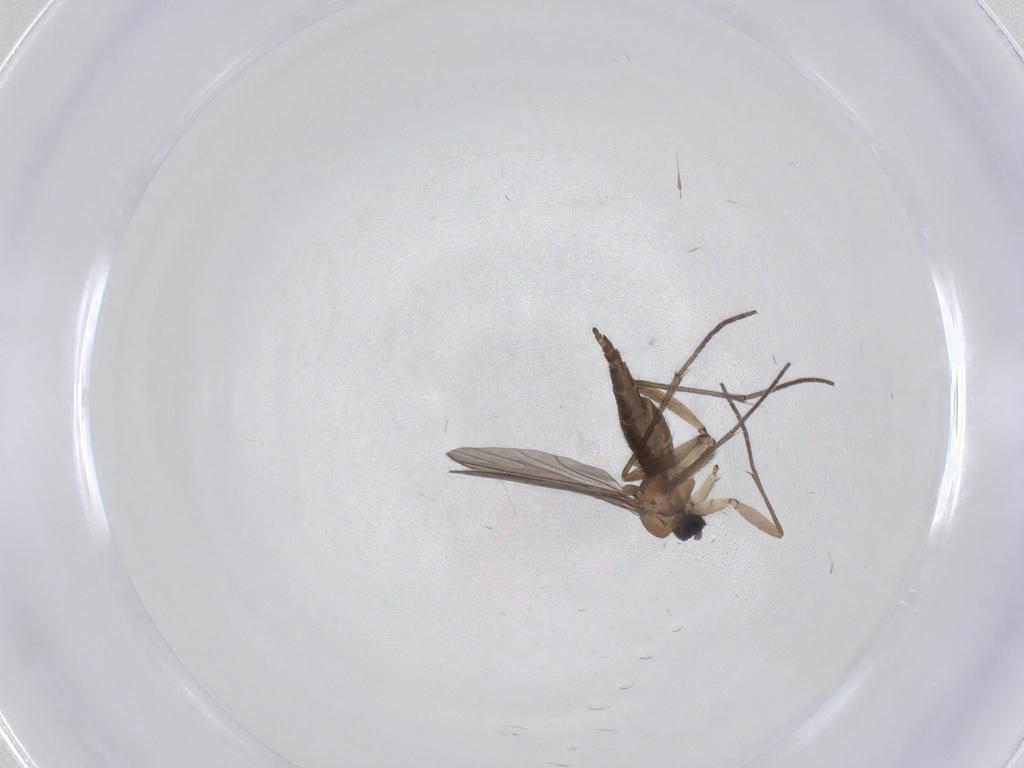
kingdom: Animalia
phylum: Arthropoda
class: Insecta
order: Diptera
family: Sciaridae
